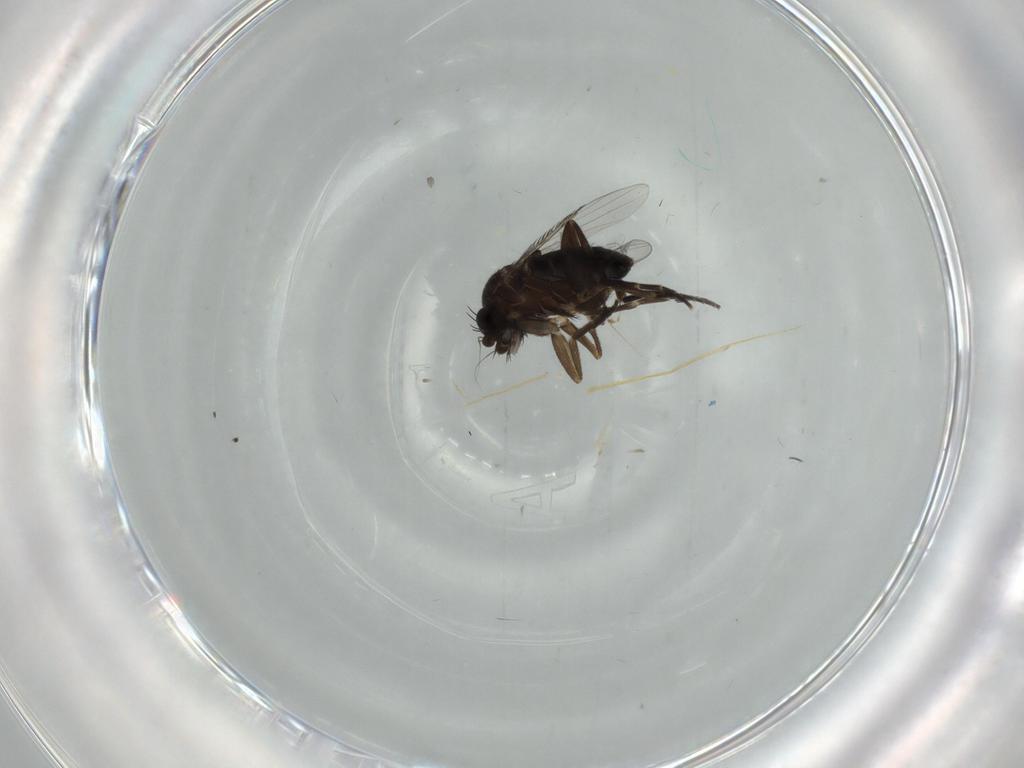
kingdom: Animalia
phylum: Arthropoda
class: Insecta
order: Diptera
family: Phoridae
